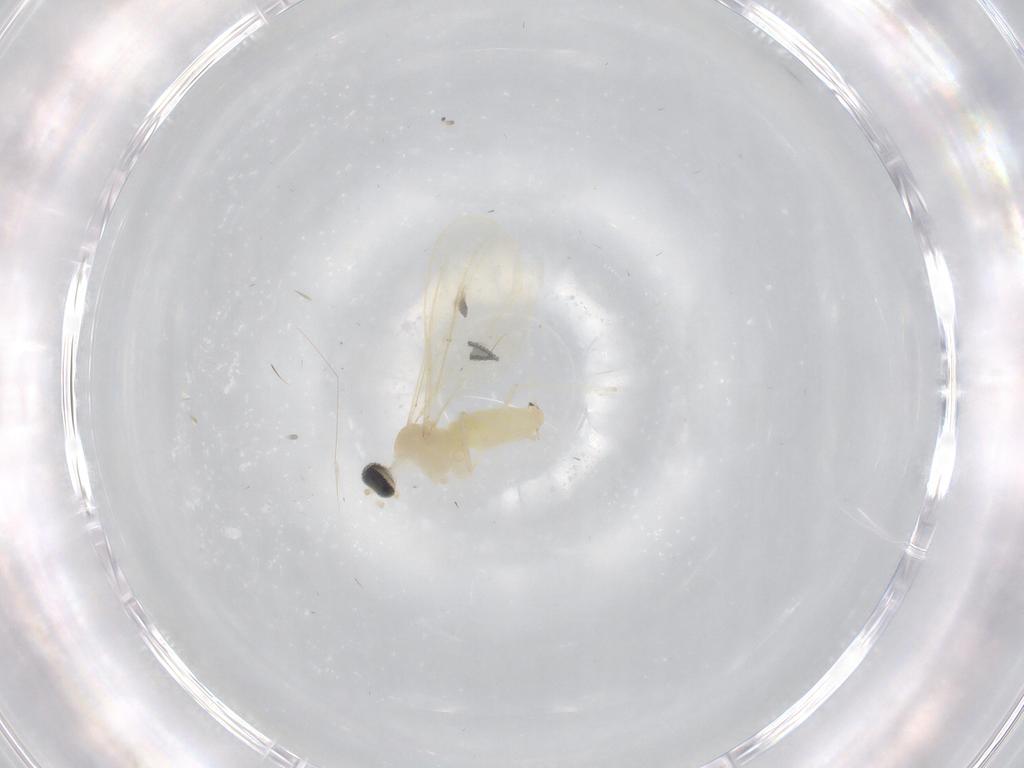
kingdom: Animalia
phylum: Arthropoda
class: Insecta
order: Diptera
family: Cecidomyiidae
